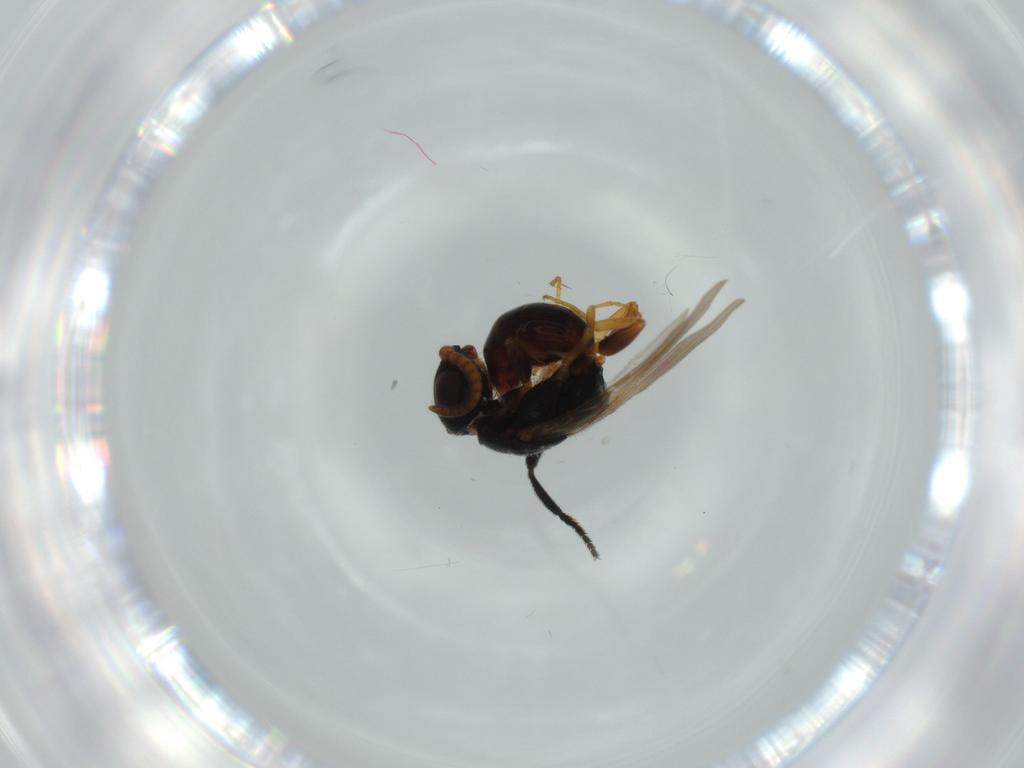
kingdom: Animalia
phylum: Arthropoda
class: Insecta
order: Hymenoptera
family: Bethylidae
